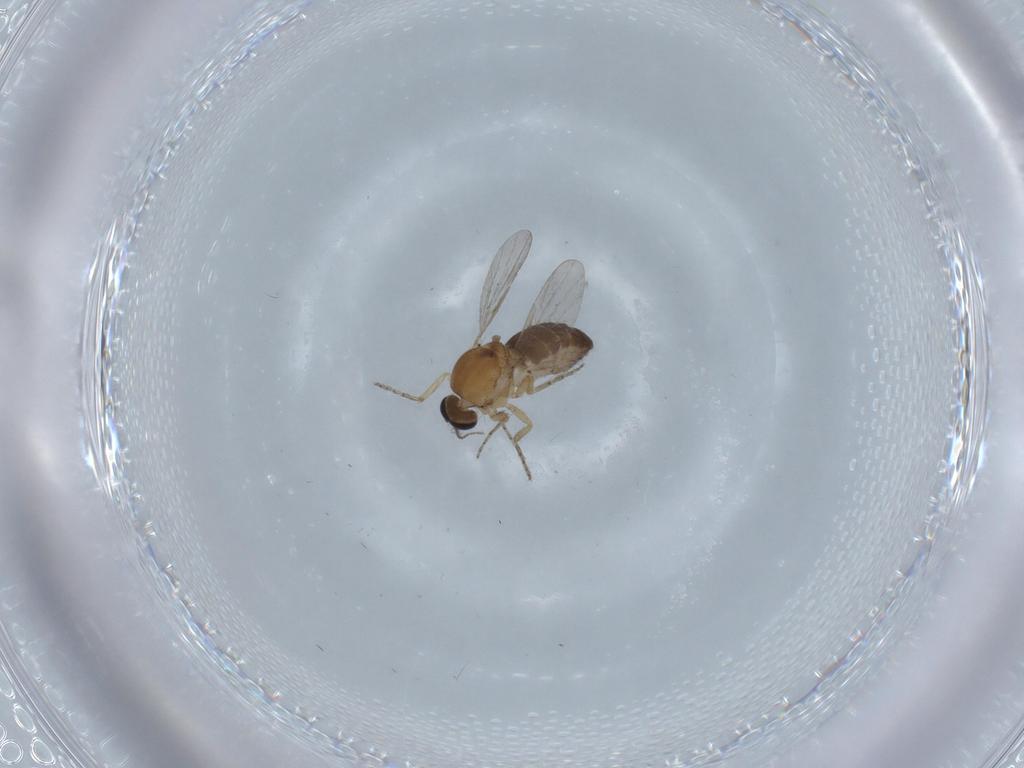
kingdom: Animalia
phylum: Arthropoda
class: Insecta
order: Diptera
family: Ceratopogonidae
